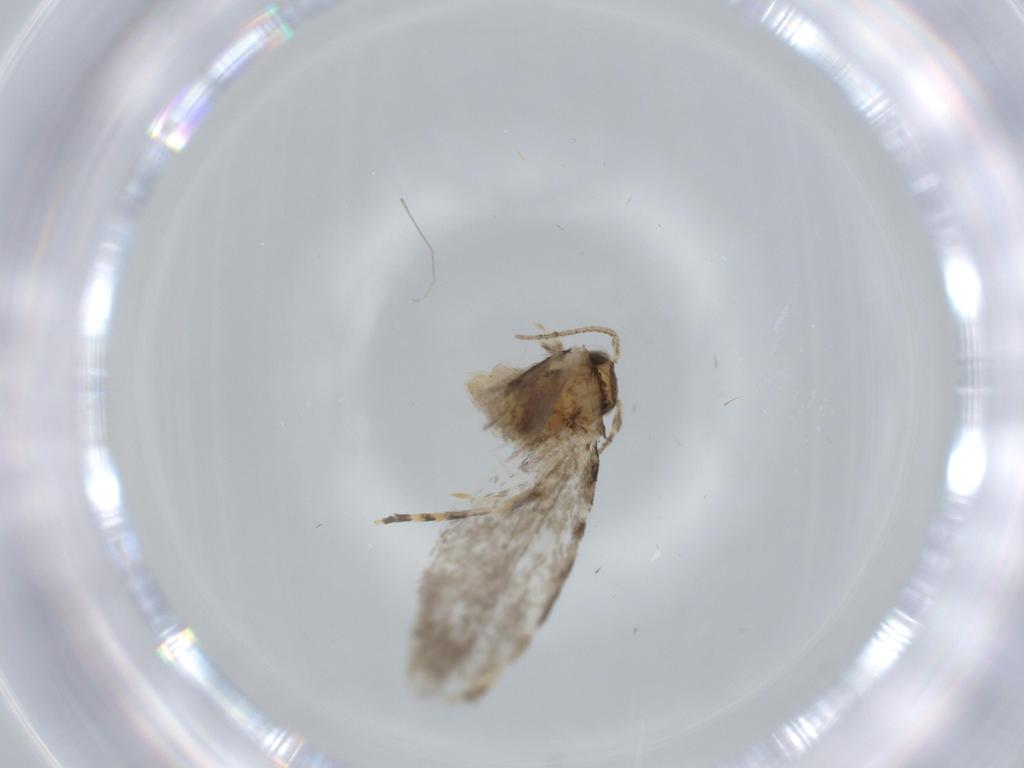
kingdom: Animalia
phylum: Arthropoda
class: Insecta
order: Lepidoptera
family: Tineidae
